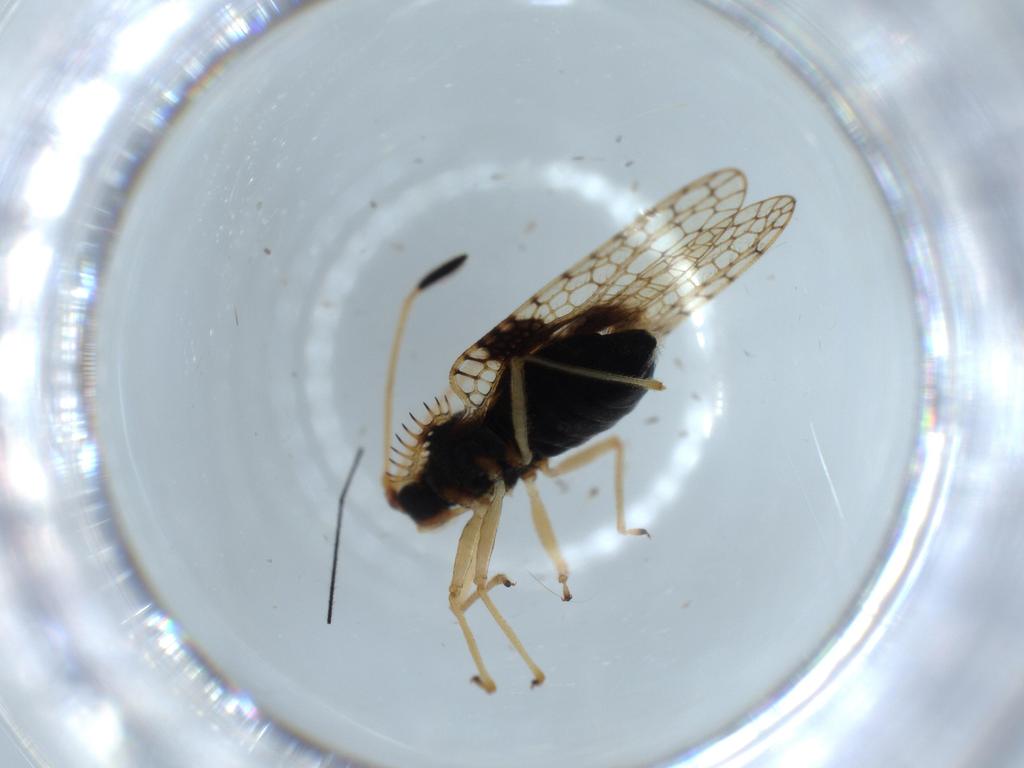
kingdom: Animalia
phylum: Arthropoda
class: Insecta
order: Hemiptera
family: Tingidae
